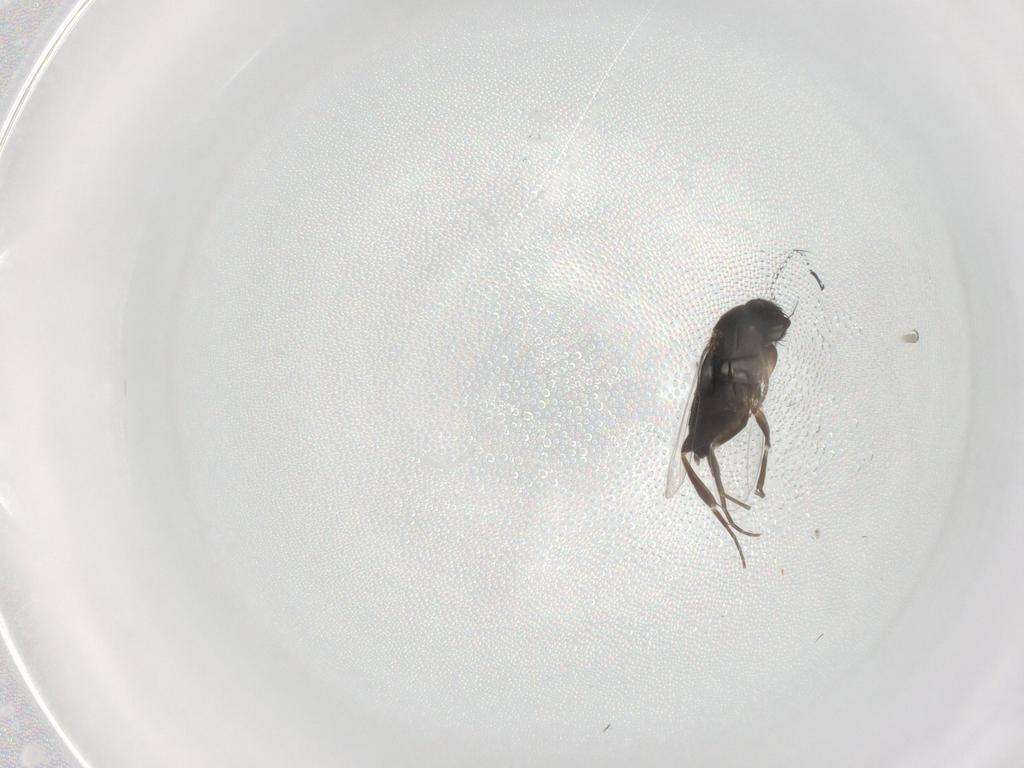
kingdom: Animalia
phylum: Arthropoda
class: Insecta
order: Diptera
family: Phoridae
